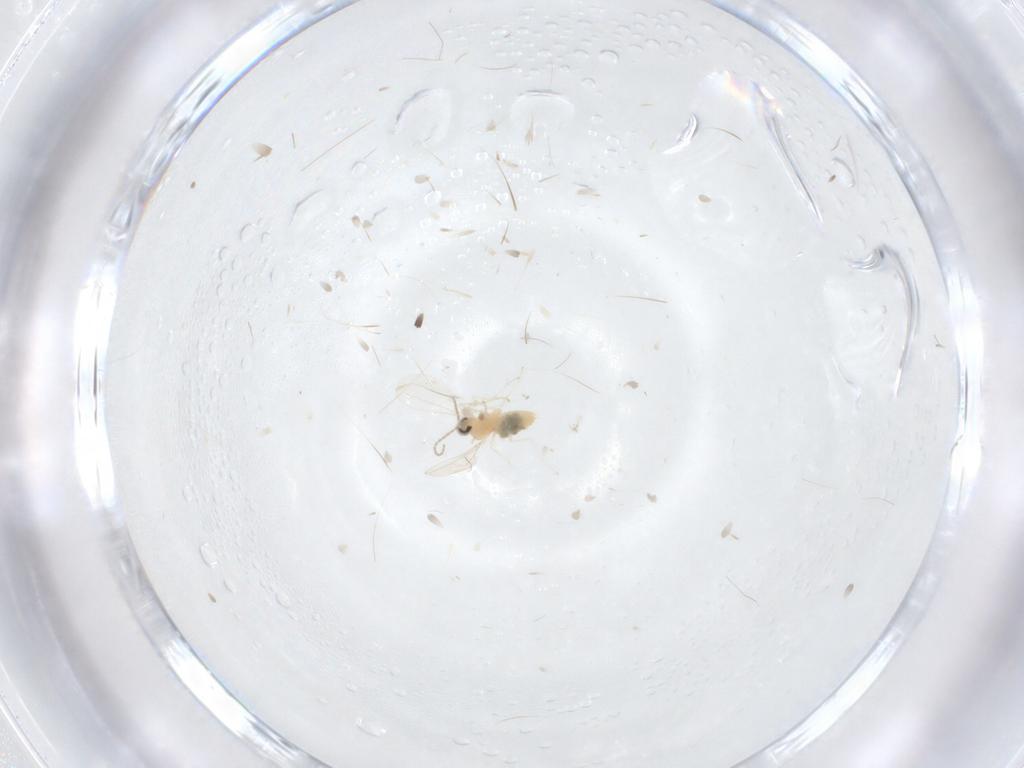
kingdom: Animalia
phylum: Arthropoda
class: Insecta
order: Diptera
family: Cecidomyiidae
